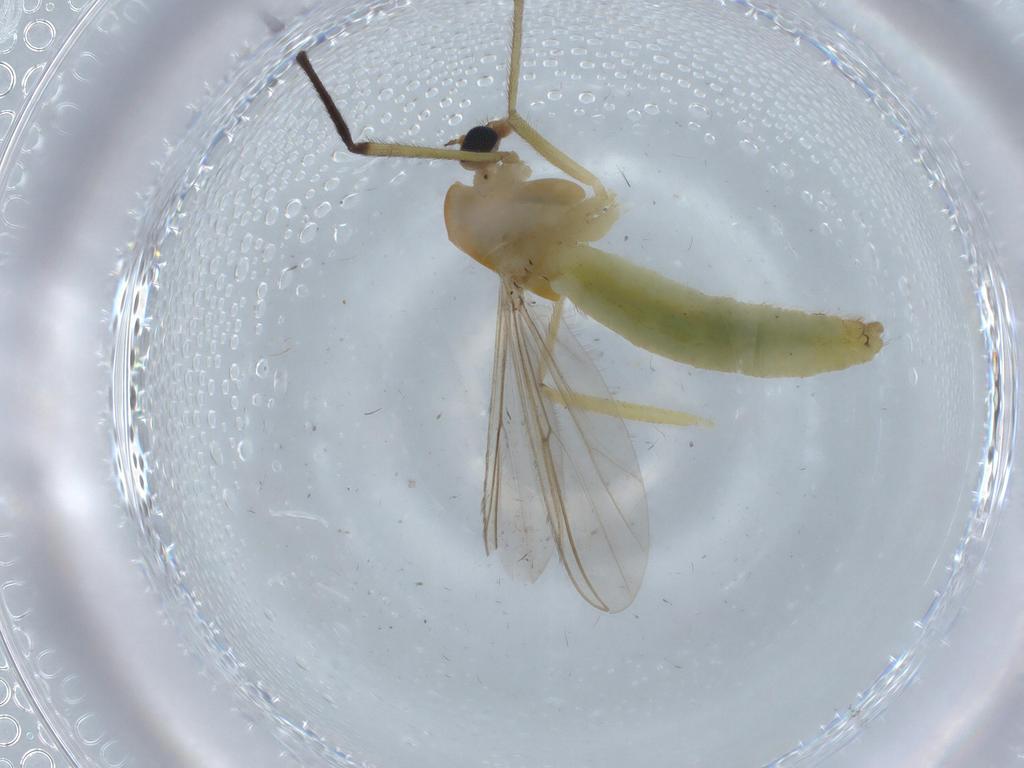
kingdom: Animalia
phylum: Arthropoda
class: Insecta
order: Diptera
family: Chironomidae
